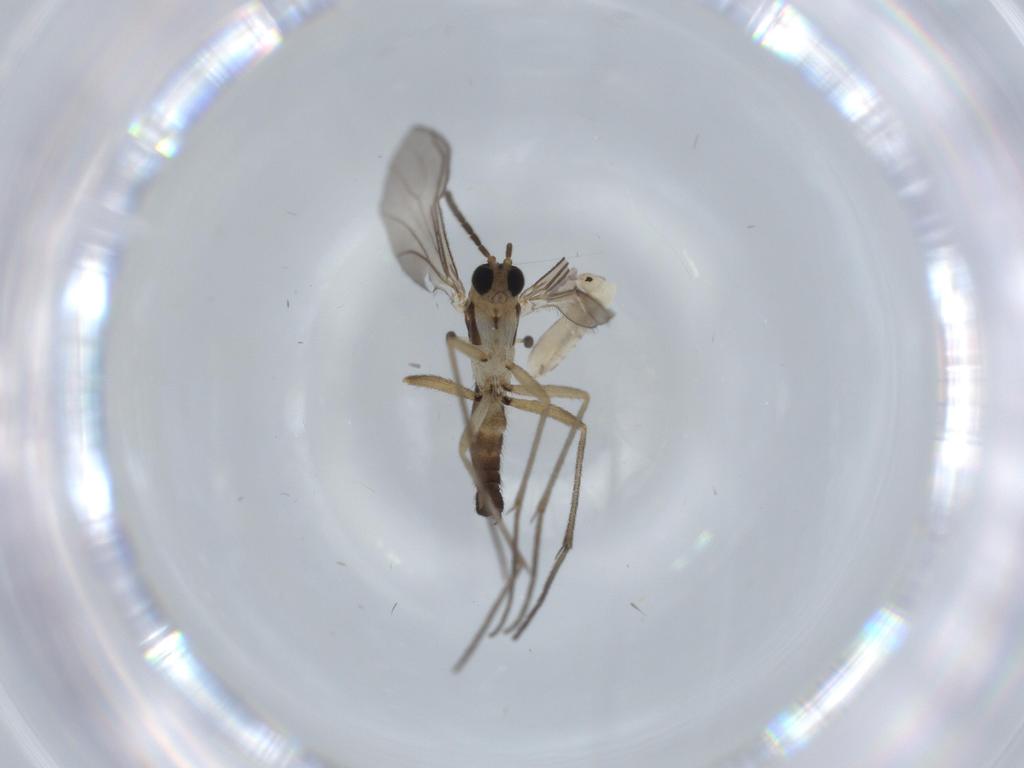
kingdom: Animalia
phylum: Arthropoda
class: Insecta
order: Diptera
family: Sciaridae
